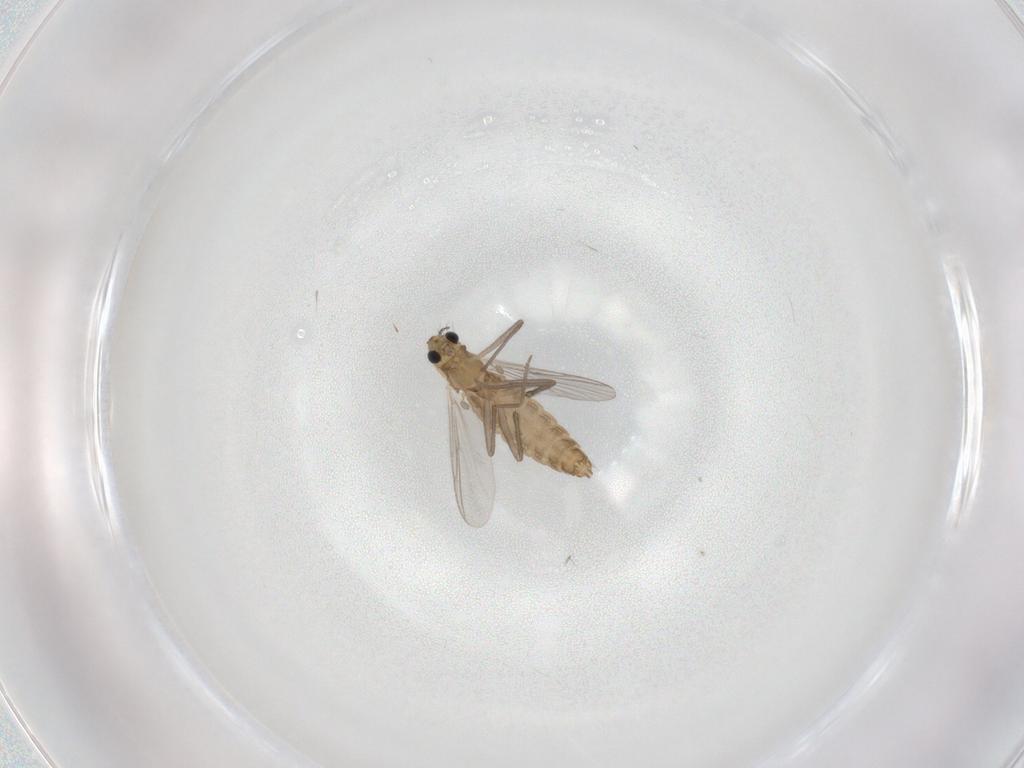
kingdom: Animalia
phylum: Arthropoda
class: Insecta
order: Diptera
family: Chironomidae
